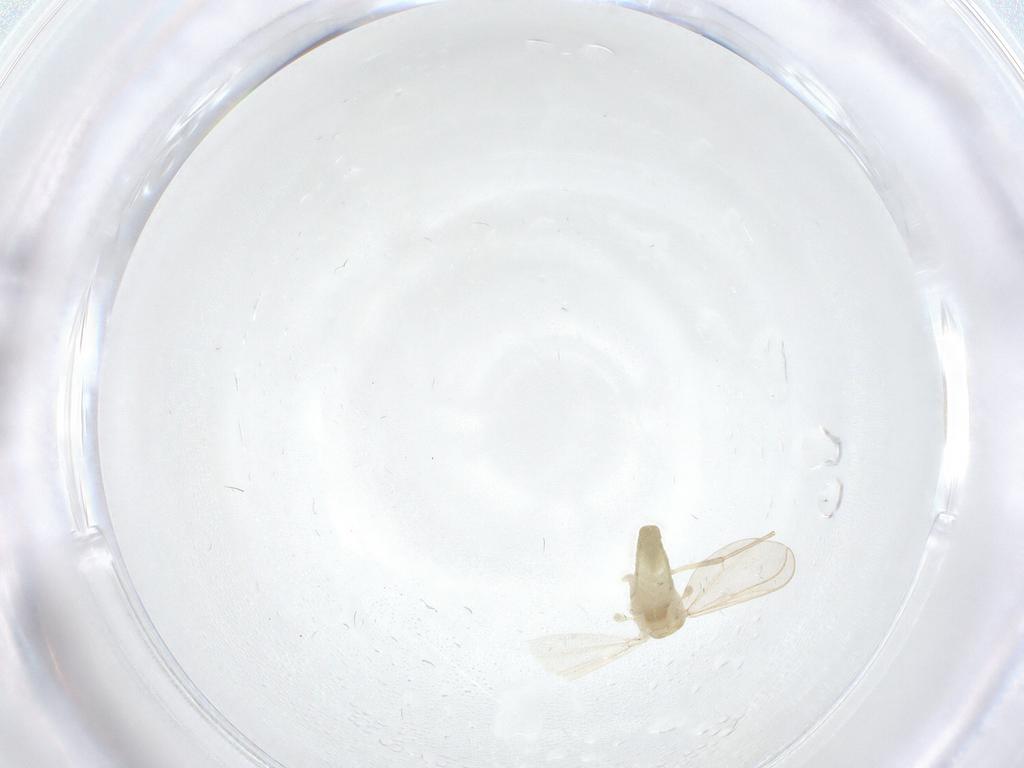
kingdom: Animalia
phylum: Arthropoda
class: Insecta
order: Diptera
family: Chironomidae
